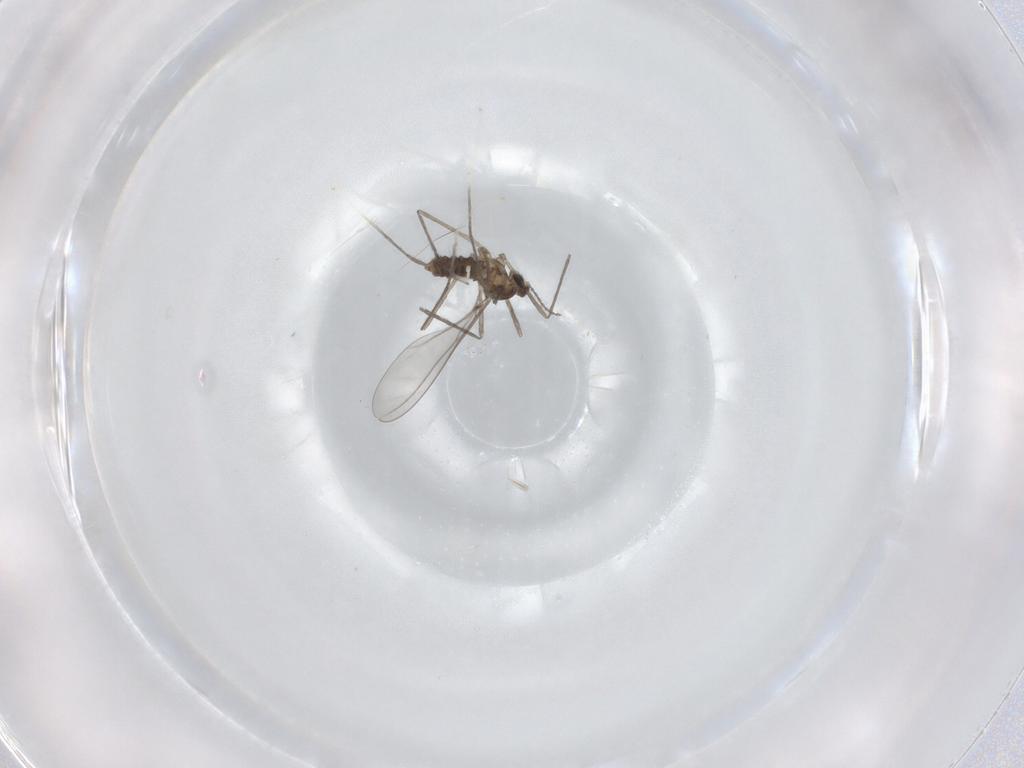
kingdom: Animalia
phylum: Arthropoda
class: Insecta
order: Diptera
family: Cecidomyiidae
